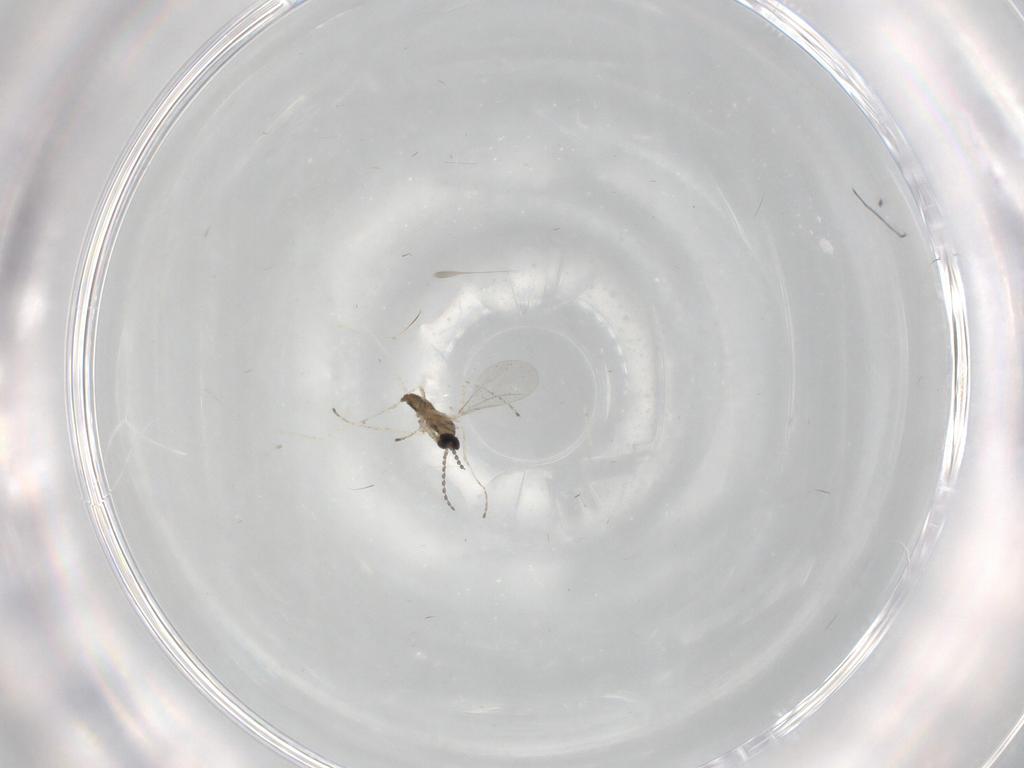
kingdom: Animalia
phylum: Arthropoda
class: Insecta
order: Diptera
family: Cecidomyiidae
